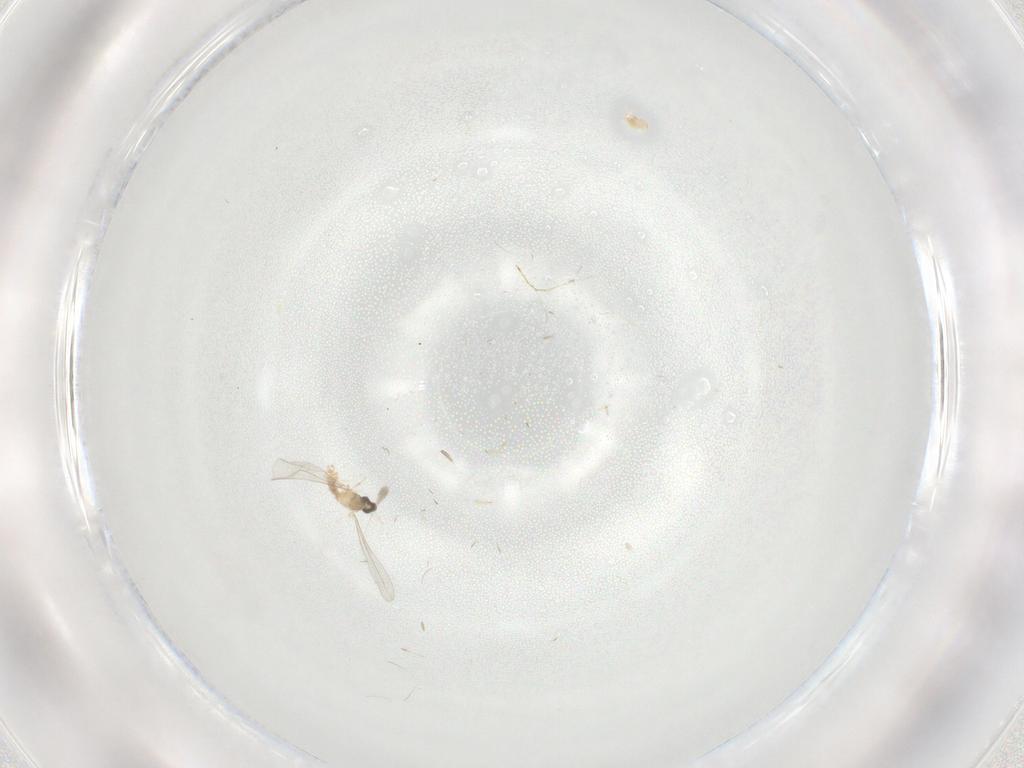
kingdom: Animalia
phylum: Arthropoda
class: Insecta
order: Diptera
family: Cecidomyiidae
